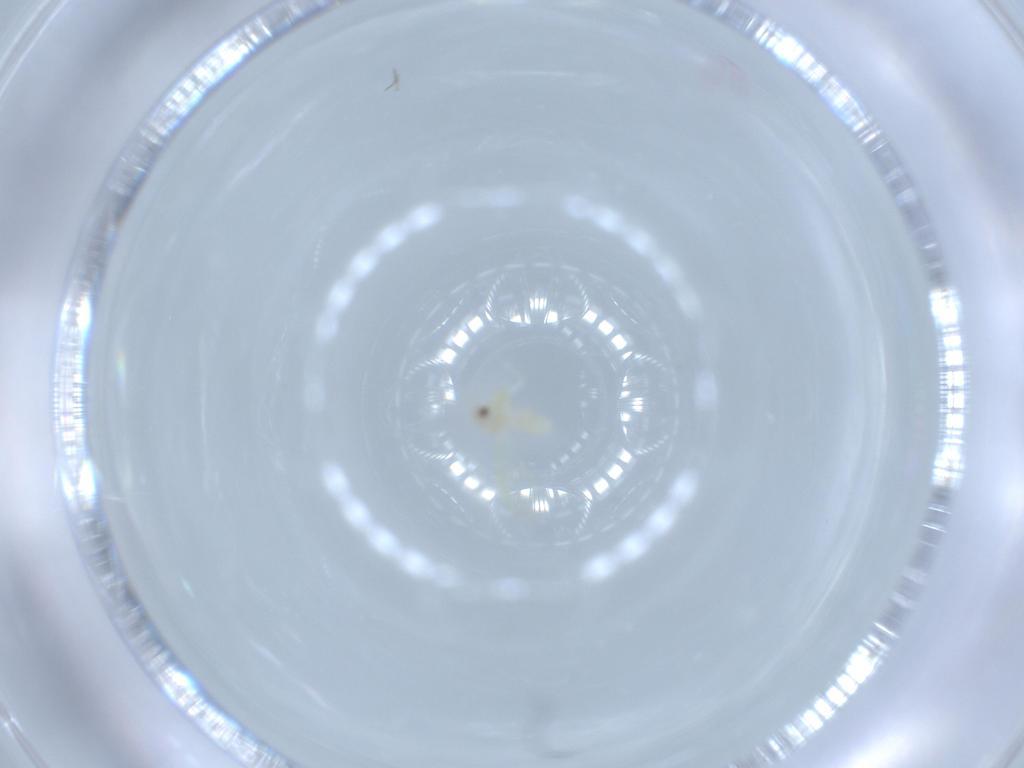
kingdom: Animalia
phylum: Arthropoda
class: Insecta
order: Hemiptera
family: Aleyrodidae
